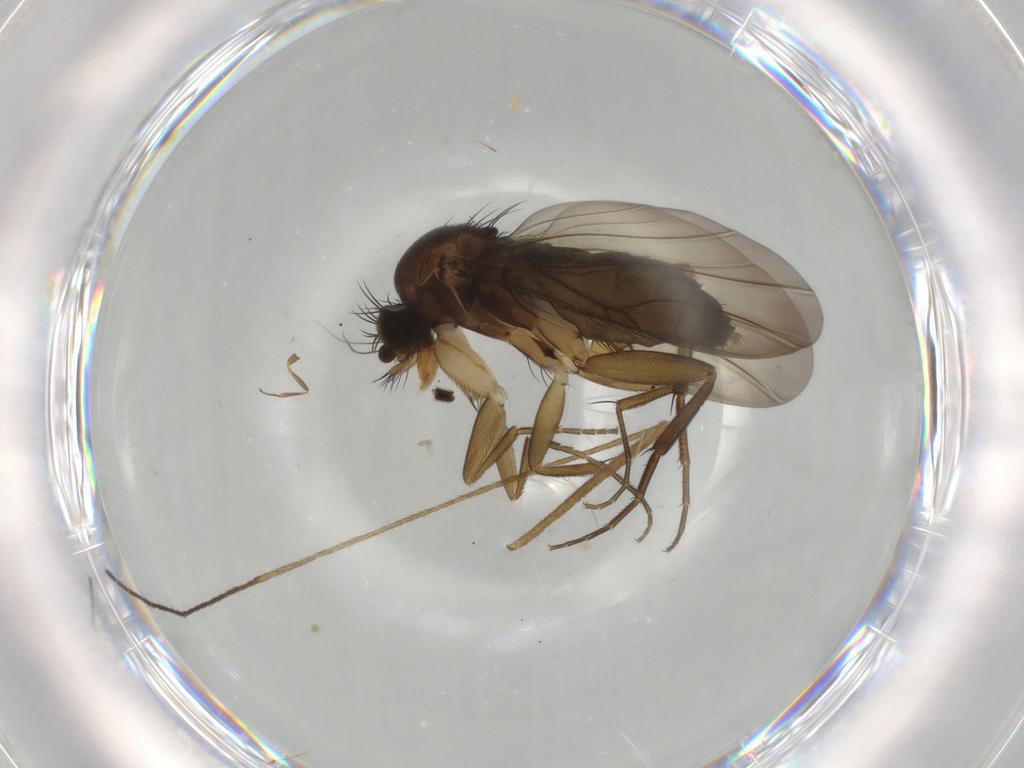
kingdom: Animalia
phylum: Arthropoda
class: Insecta
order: Diptera
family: Phoridae
